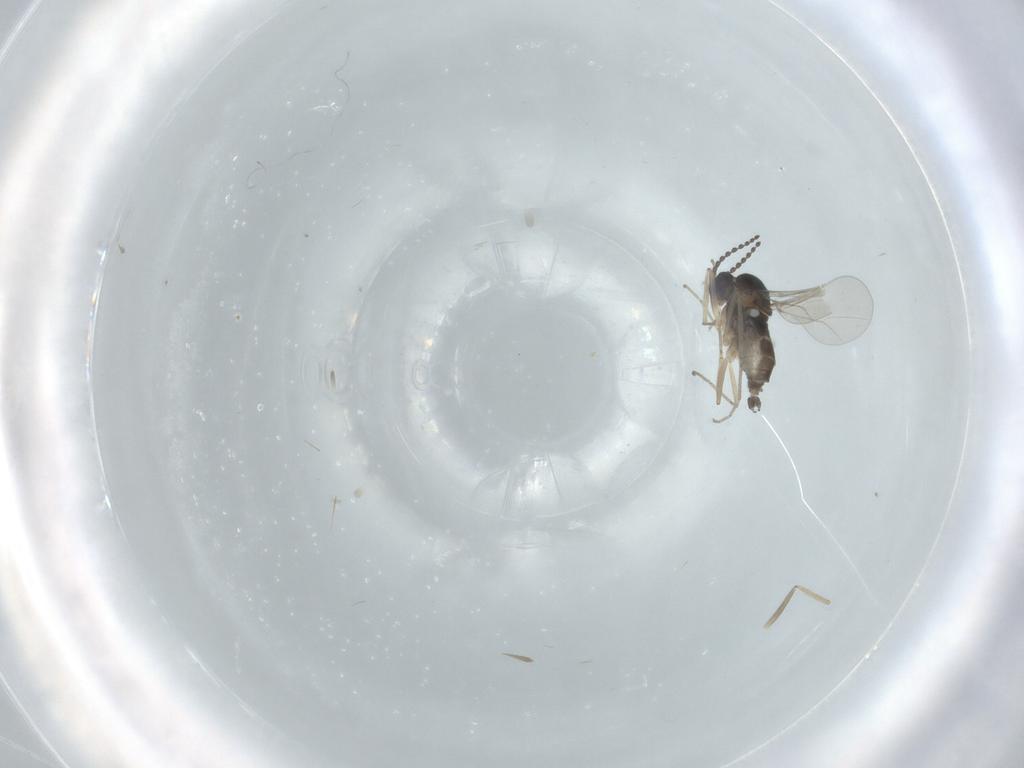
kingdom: Animalia
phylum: Arthropoda
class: Insecta
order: Diptera
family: Cecidomyiidae
